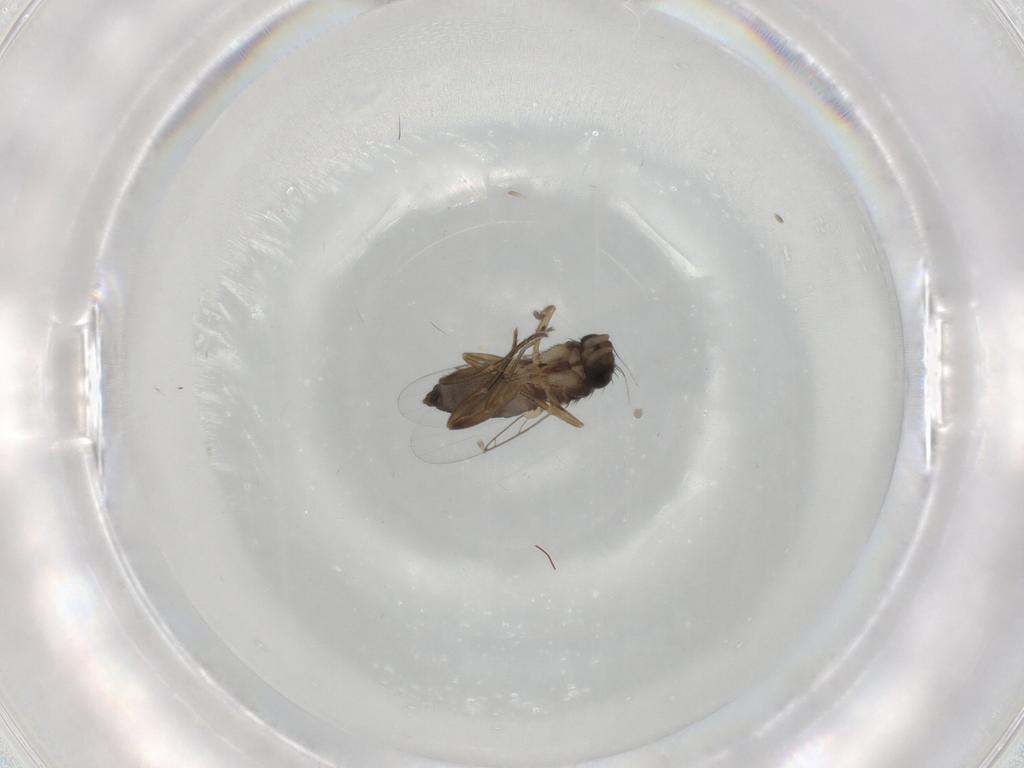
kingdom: Animalia
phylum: Arthropoda
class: Insecta
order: Diptera
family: Phoridae
